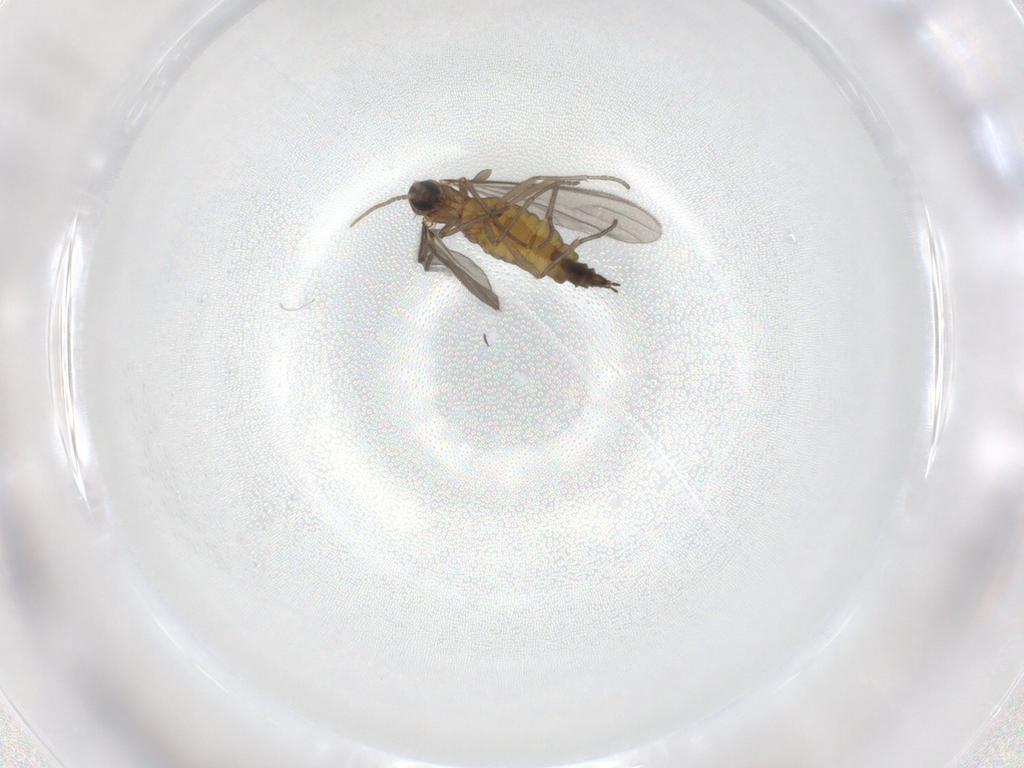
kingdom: Animalia
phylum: Arthropoda
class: Insecta
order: Diptera
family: Sciaridae
